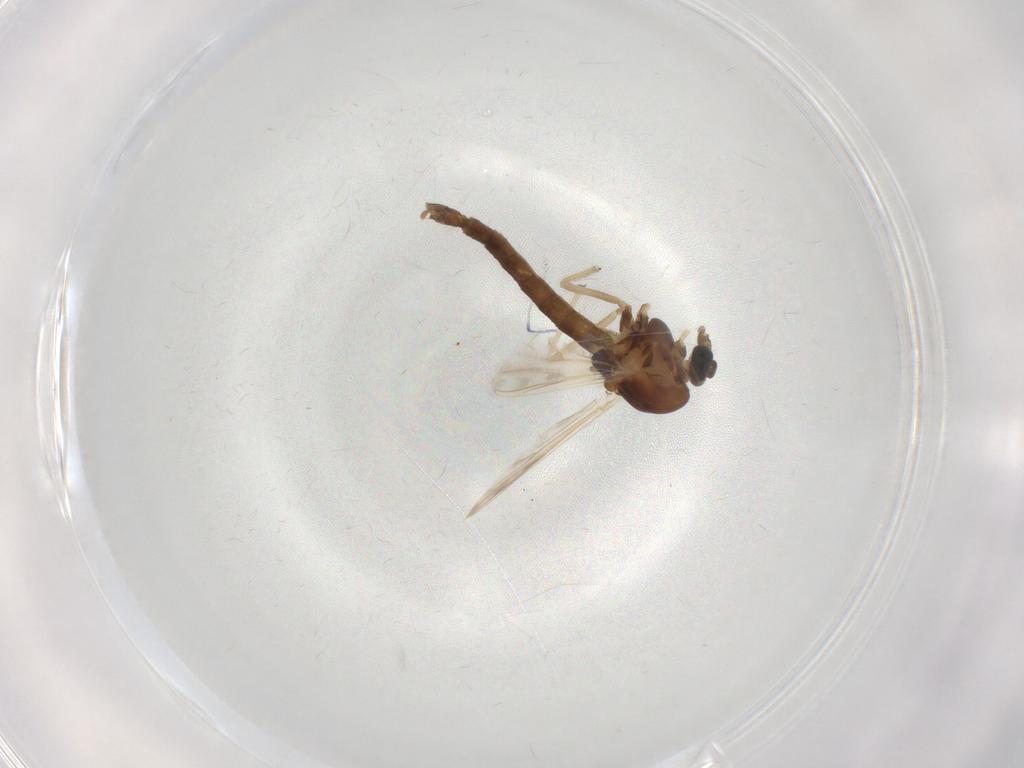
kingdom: Animalia
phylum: Arthropoda
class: Insecta
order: Diptera
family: Chironomidae
